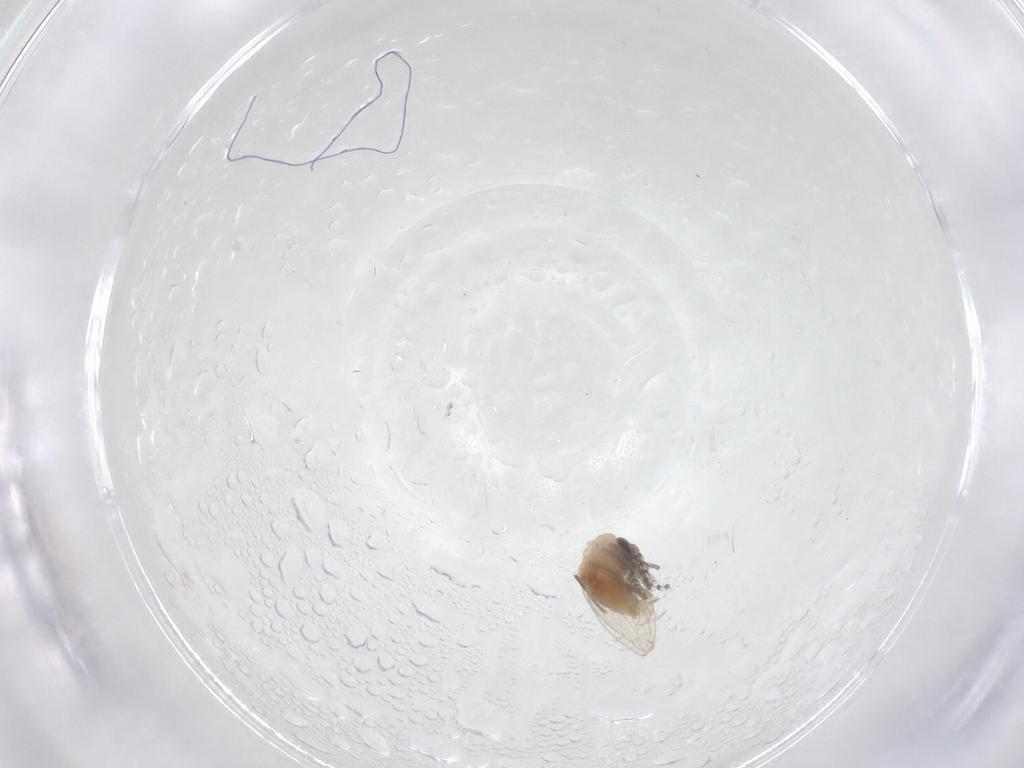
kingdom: Animalia
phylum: Arthropoda
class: Insecta
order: Diptera
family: Psychodidae
